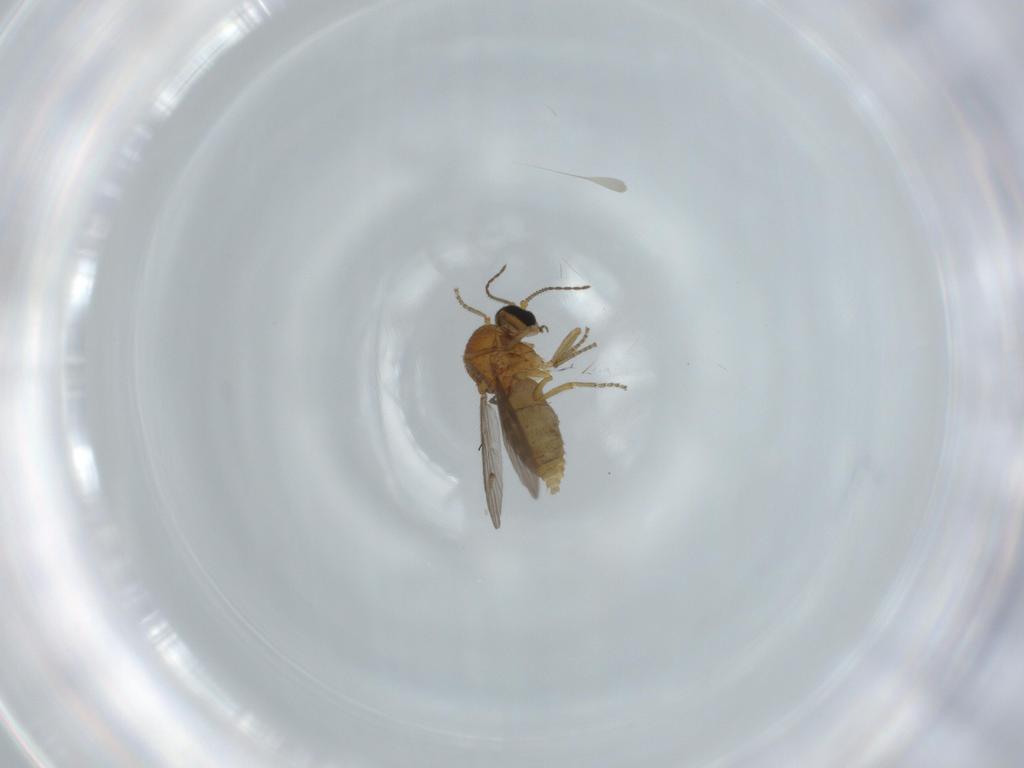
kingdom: Animalia
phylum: Arthropoda
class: Insecta
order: Diptera
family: Ceratopogonidae
